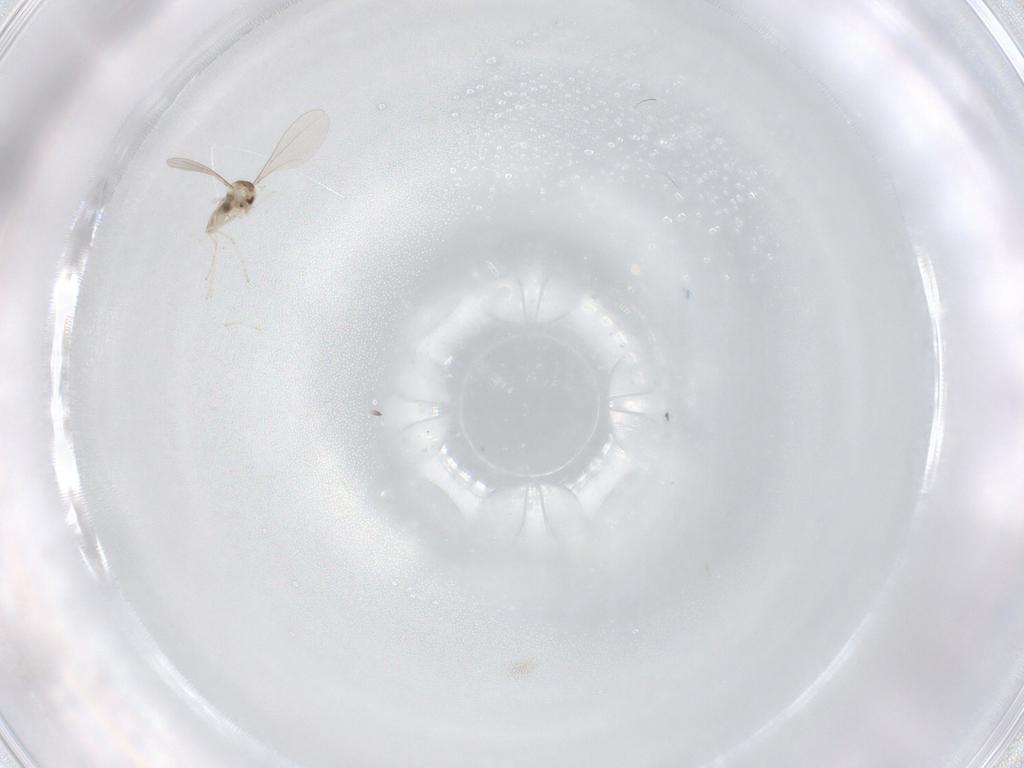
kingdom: Animalia
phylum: Arthropoda
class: Insecta
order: Diptera
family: Cecidomyiidae
